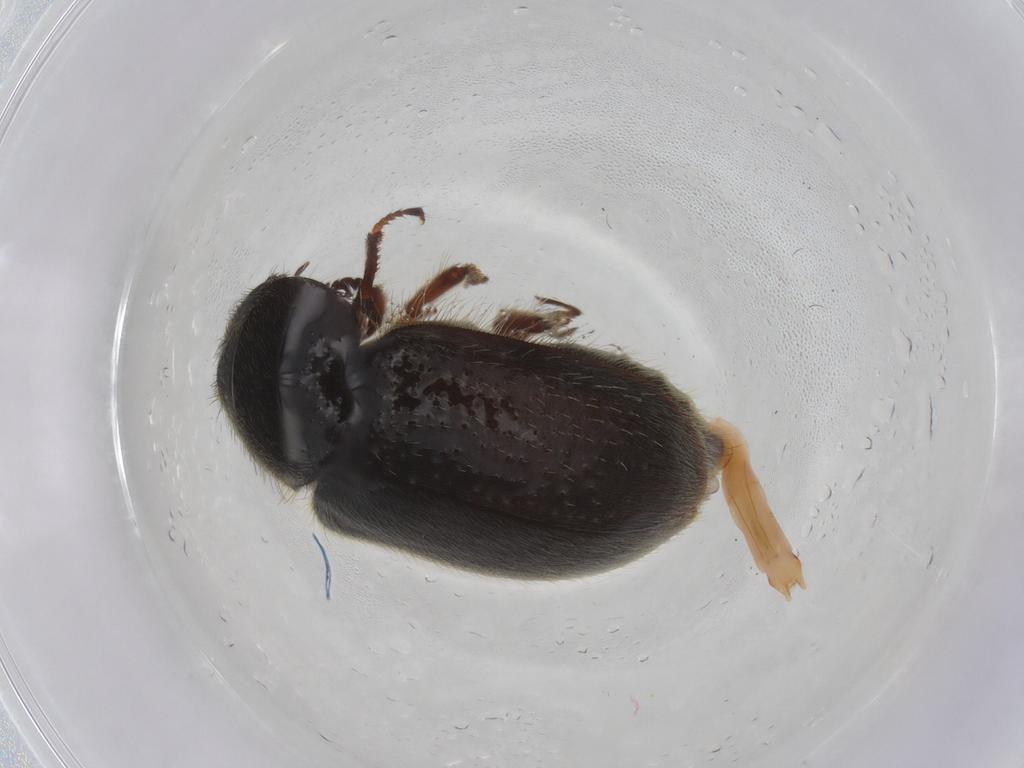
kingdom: Animalia
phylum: Arthropoda
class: Insecta
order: Coleoptera
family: Melyridae
